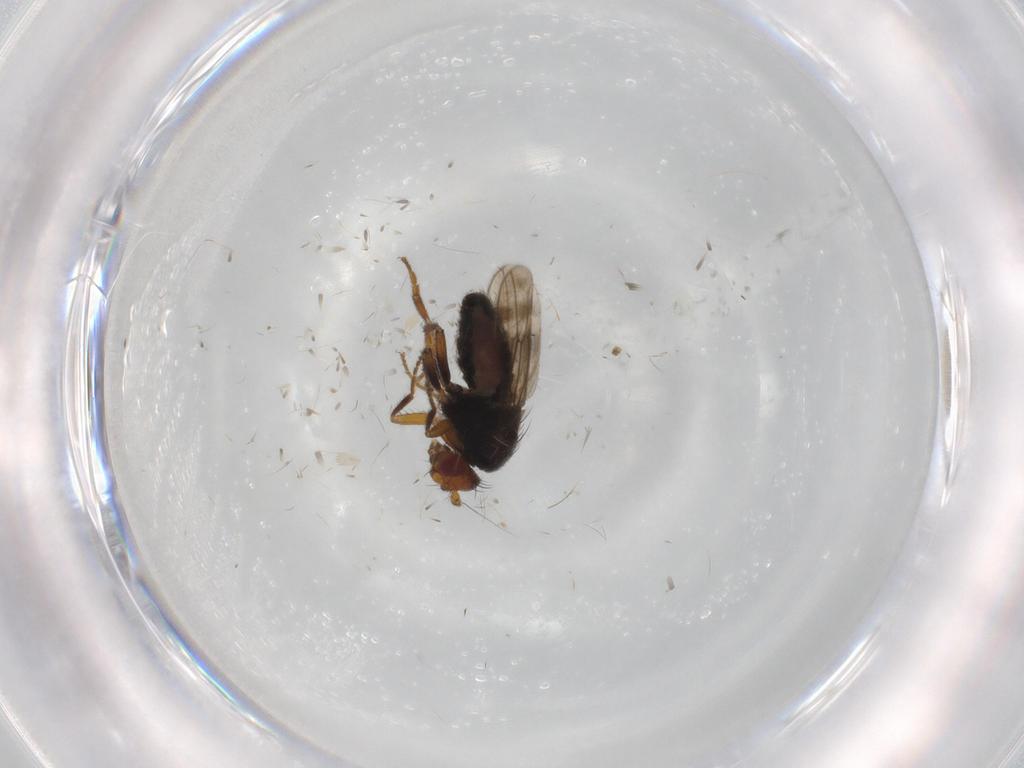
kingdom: Animalia
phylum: Arthropoda
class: Insecta
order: Diptera
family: Sphaeroceridae
